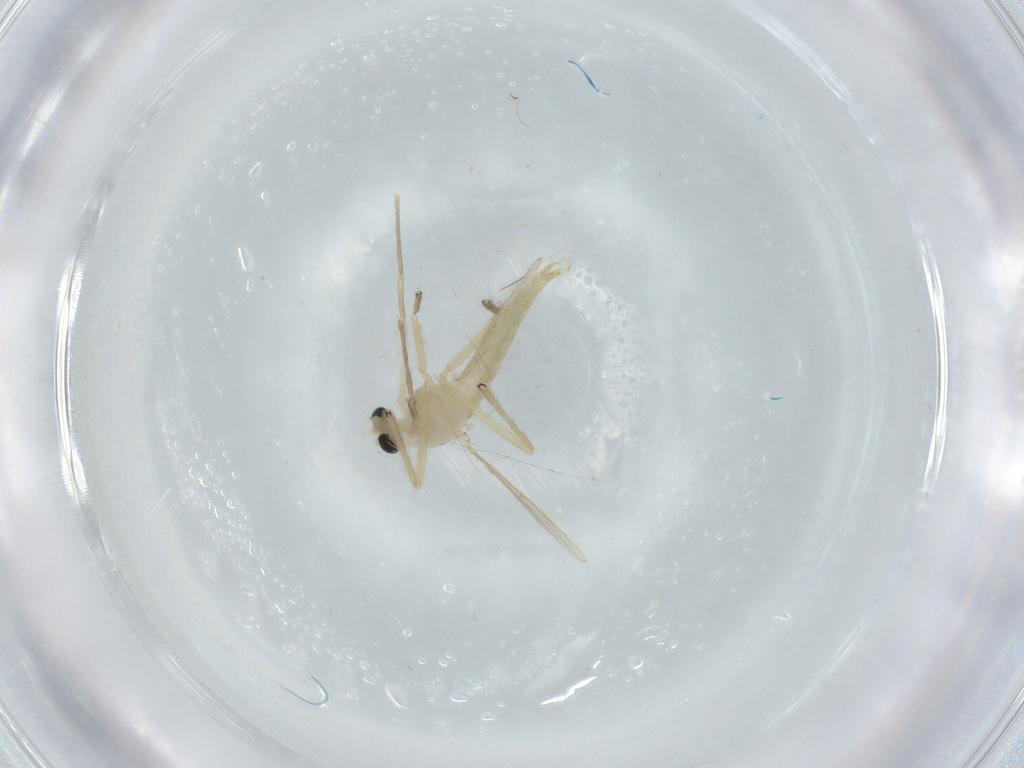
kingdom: Animalia
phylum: Arthropoda
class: Insecta
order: Diptera
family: Chironomidae
